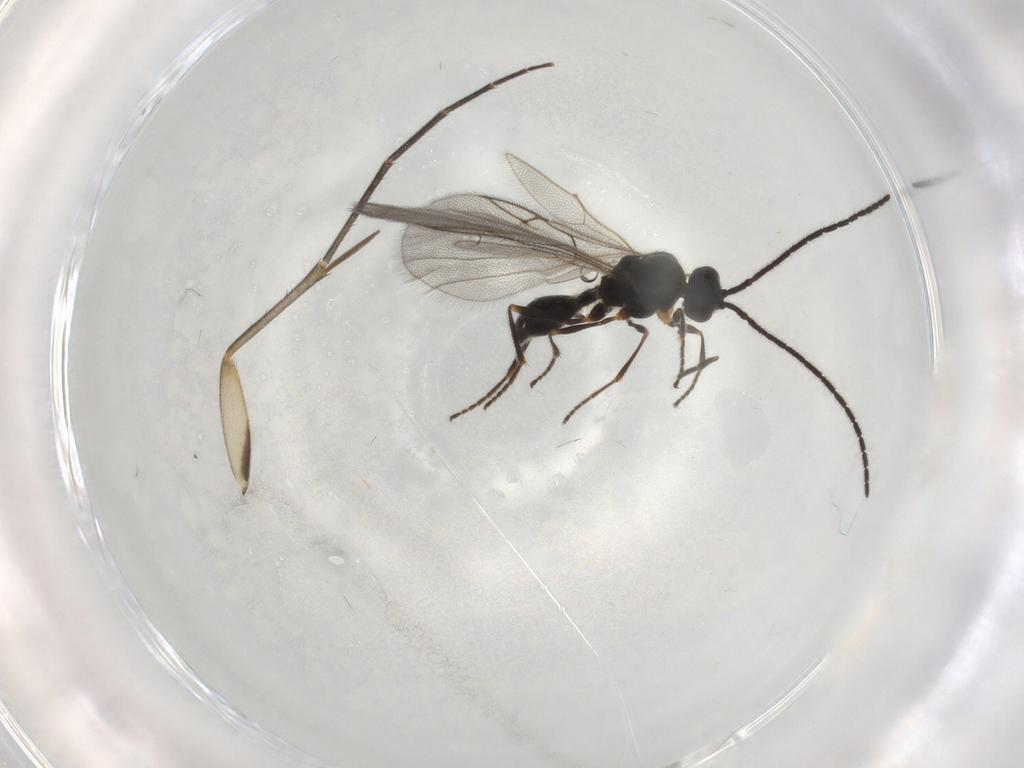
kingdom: Animalia
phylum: Arthropoda
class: Insecta
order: Hymenoptera
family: Diapriidae
